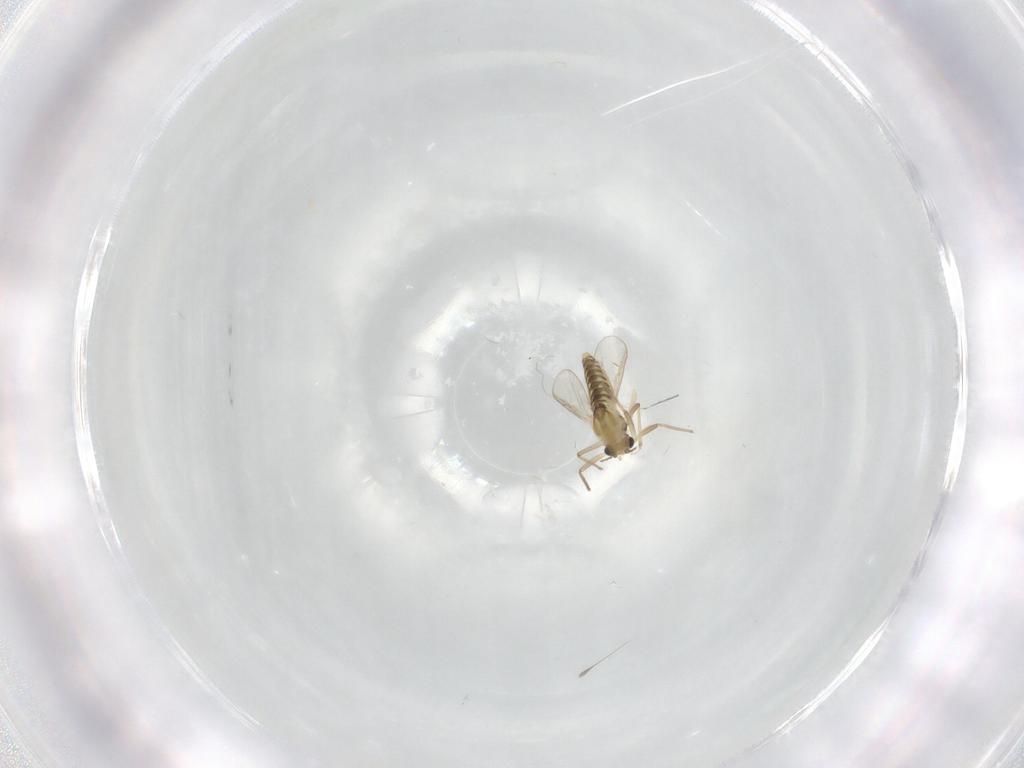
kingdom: Animalia
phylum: Arthropoda
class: Insecta
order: Diptera
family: Chironomidae
